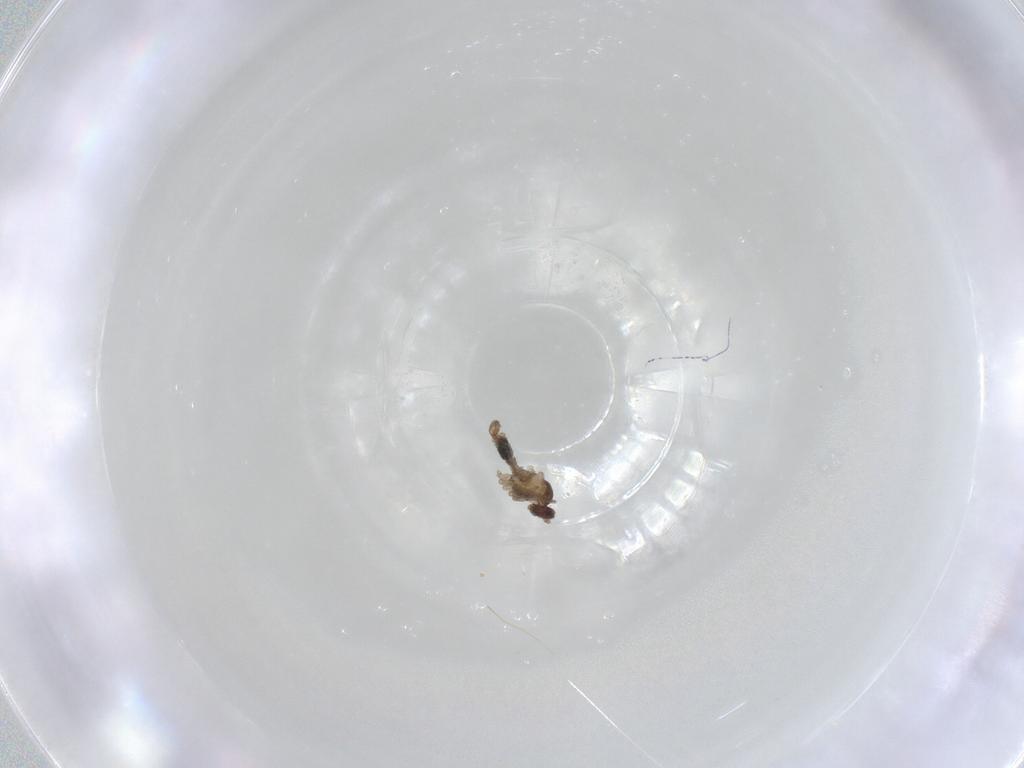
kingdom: Animalia
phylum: Arthropoda
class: Insecta
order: Diptera
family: Cecidomyiidae
